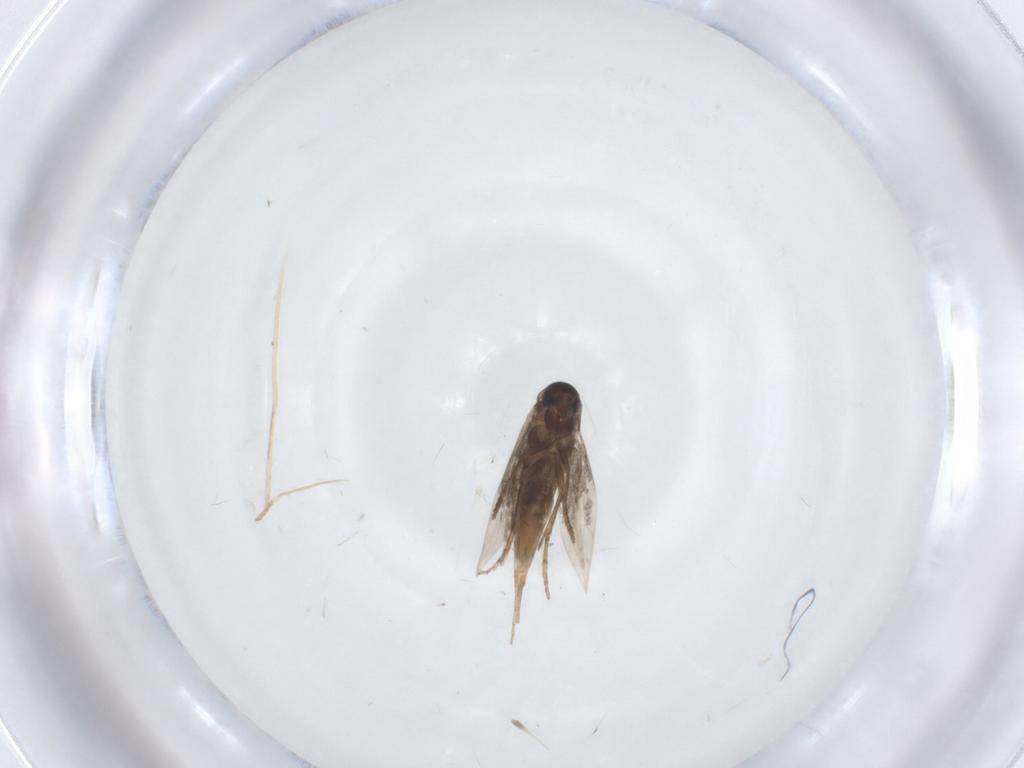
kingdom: Animalia
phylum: Arthropoda
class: Insecta
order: Lepidoptera
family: Heliozelidae
